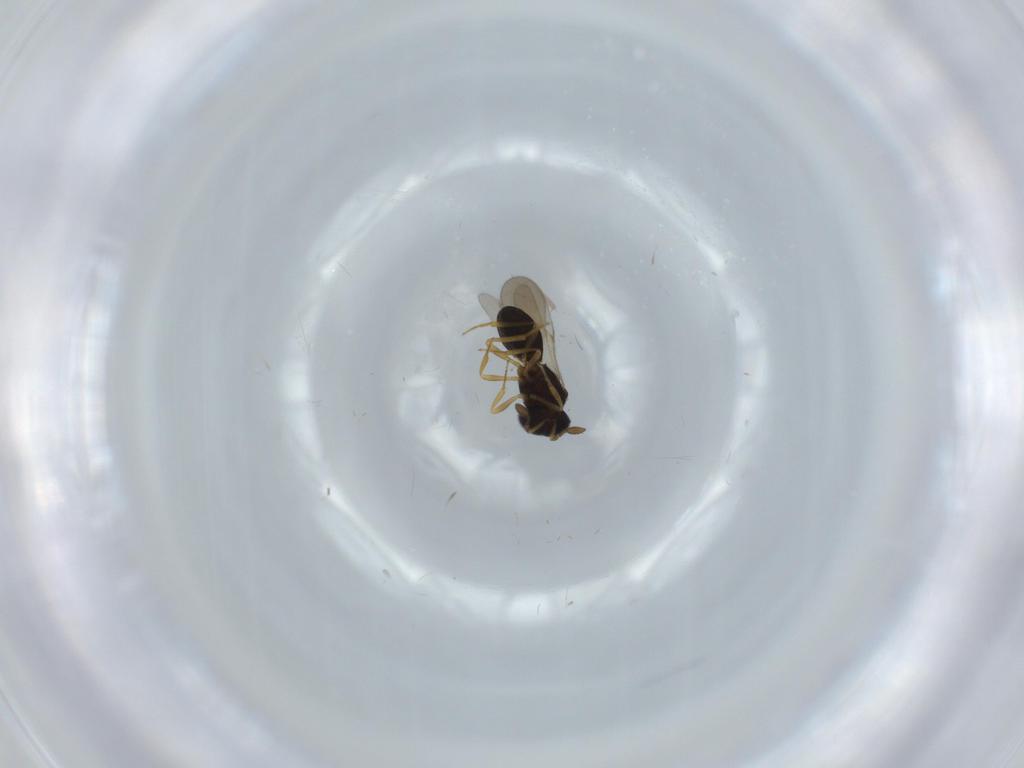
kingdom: Animalia
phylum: Arthropoda
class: Insecta
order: Hymenoptera
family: Scelionidae
